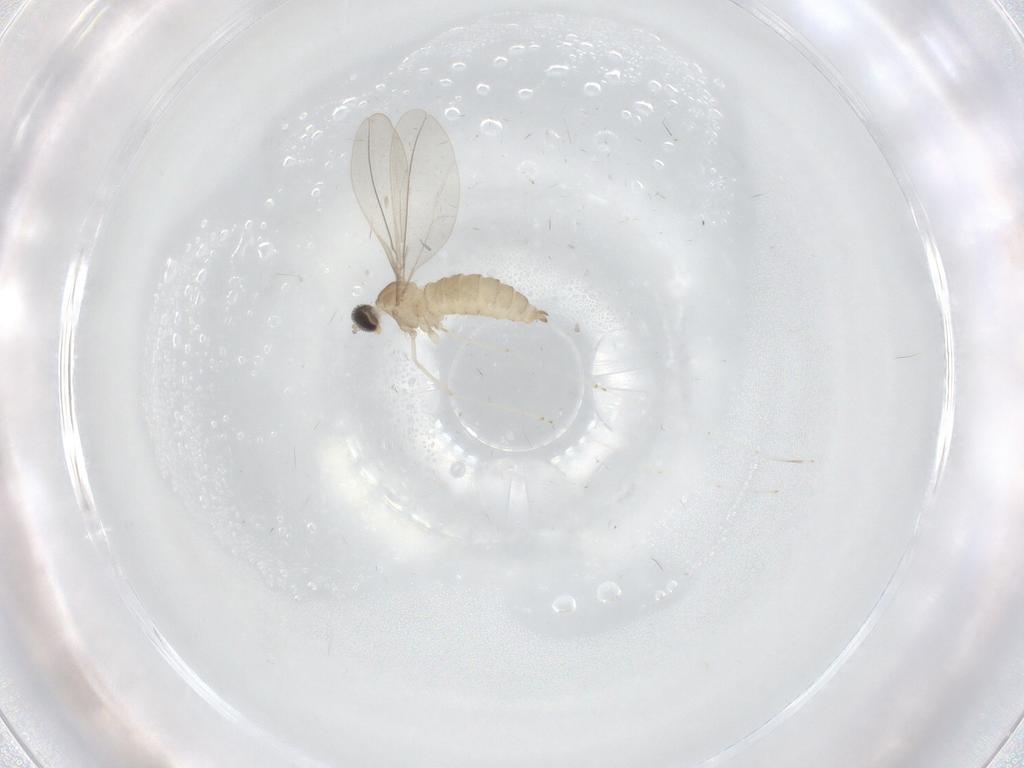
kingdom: Animalia
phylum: Arthropoda
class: Insecta
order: Diptera
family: Cecidomyiidae
